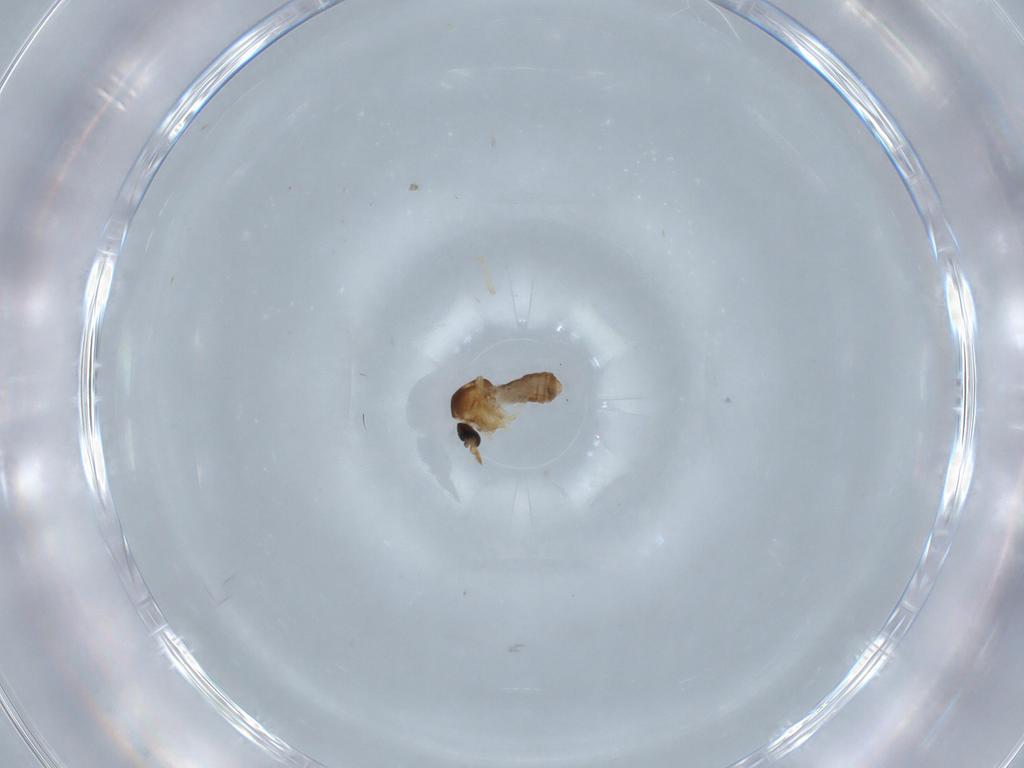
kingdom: Animalia
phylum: Arthropoda
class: Insecta
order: Diptera
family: Ceratopogonidae
